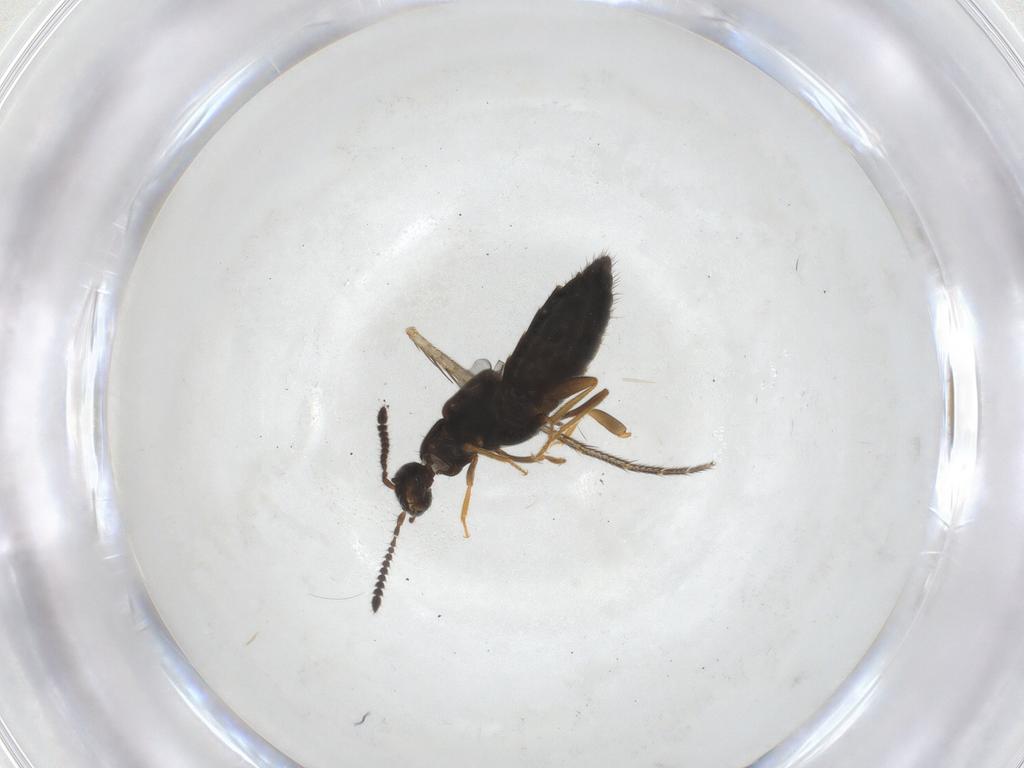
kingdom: Animalia
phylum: Arthropoda
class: Insecta
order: Coleoptera
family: Staphylinidae
